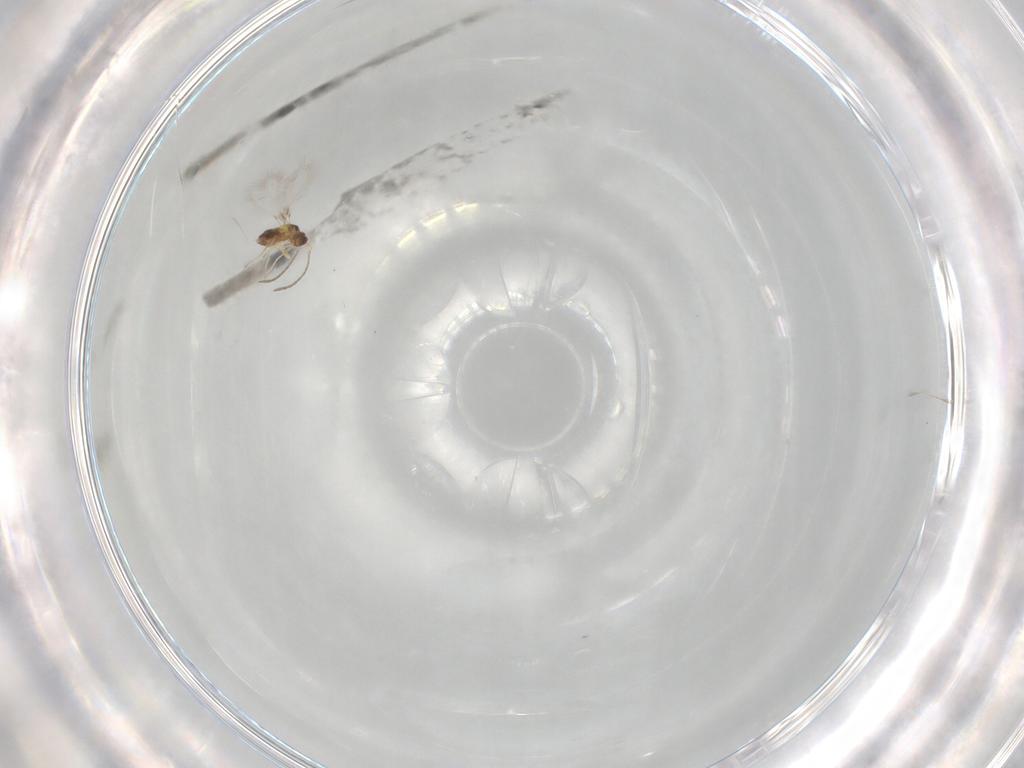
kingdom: Animalia
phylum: Arthropoda
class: Insecta
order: Hymenoptera
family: Mymaridae
